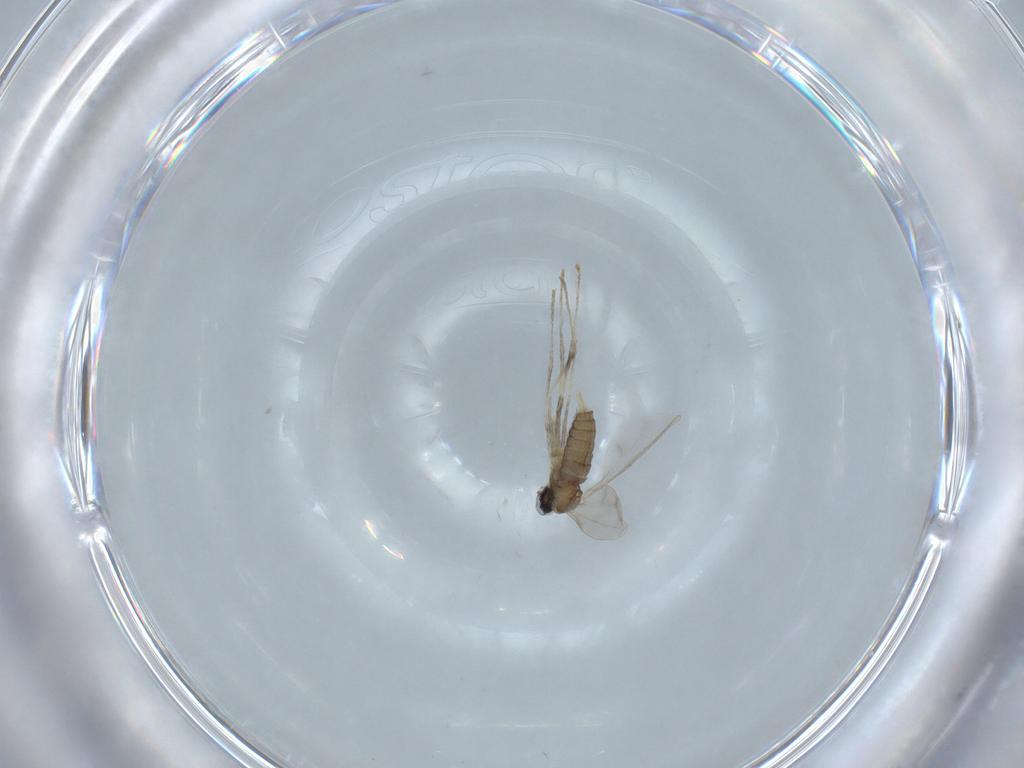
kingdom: Animalia
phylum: Arthropoda
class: Insecta
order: Diptera
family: Cecidomyiidae
